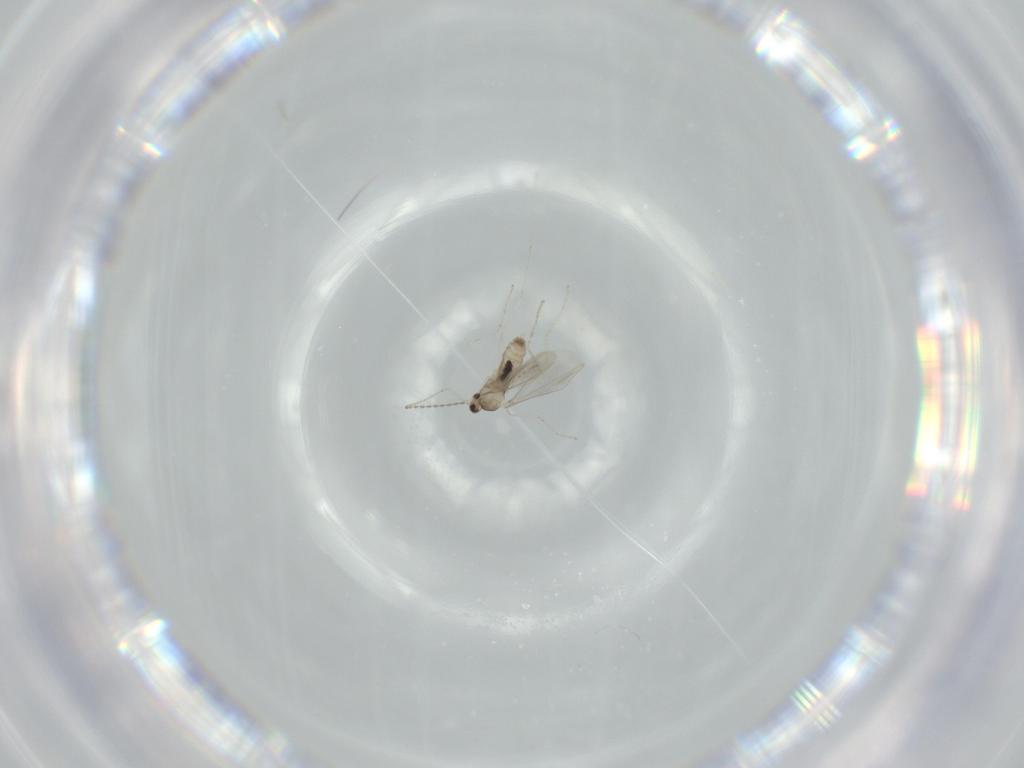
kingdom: Animalia
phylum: Arthropoda
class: Insecta
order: Diptera
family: Cecidomyiidae
